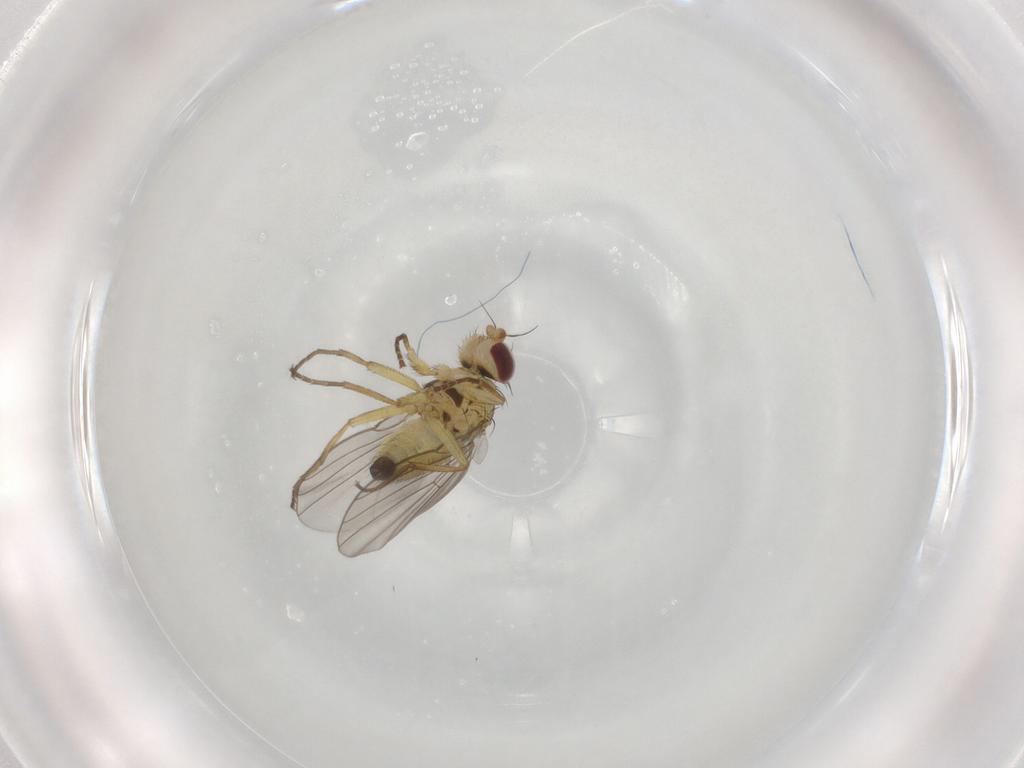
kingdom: Animalia
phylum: Arthropoda
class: Insecta
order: Diptera
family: Agromyzidae
